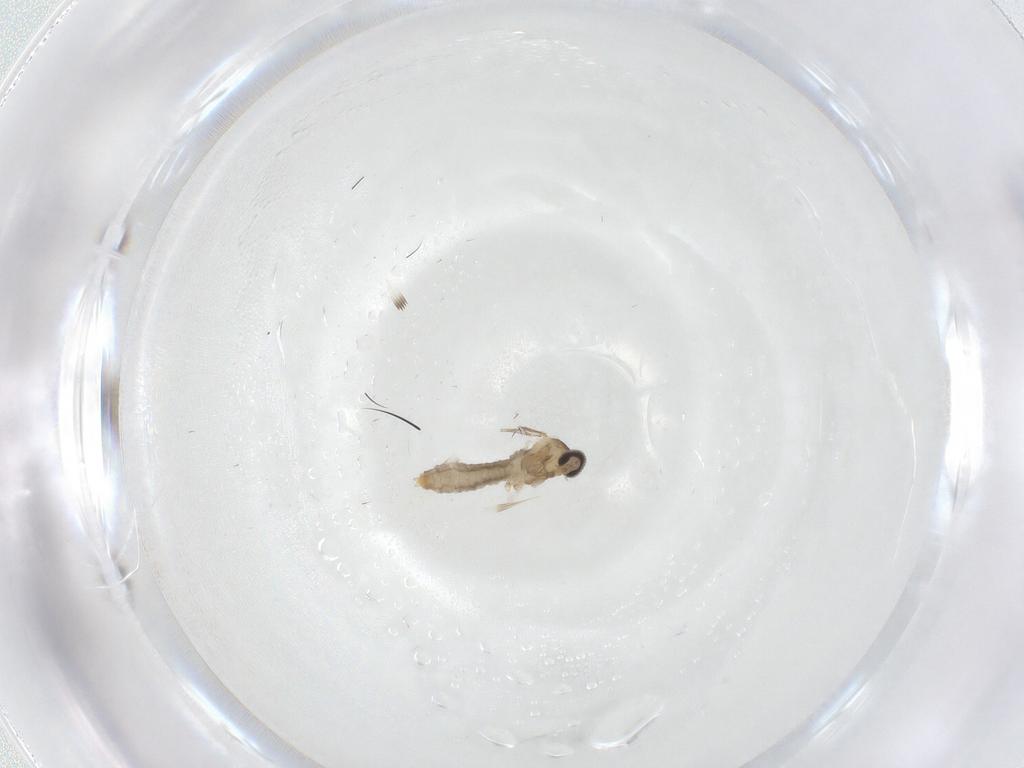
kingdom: Animalia
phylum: Arthropoda
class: Insecta
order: Diptera
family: Cecidomyiidae
